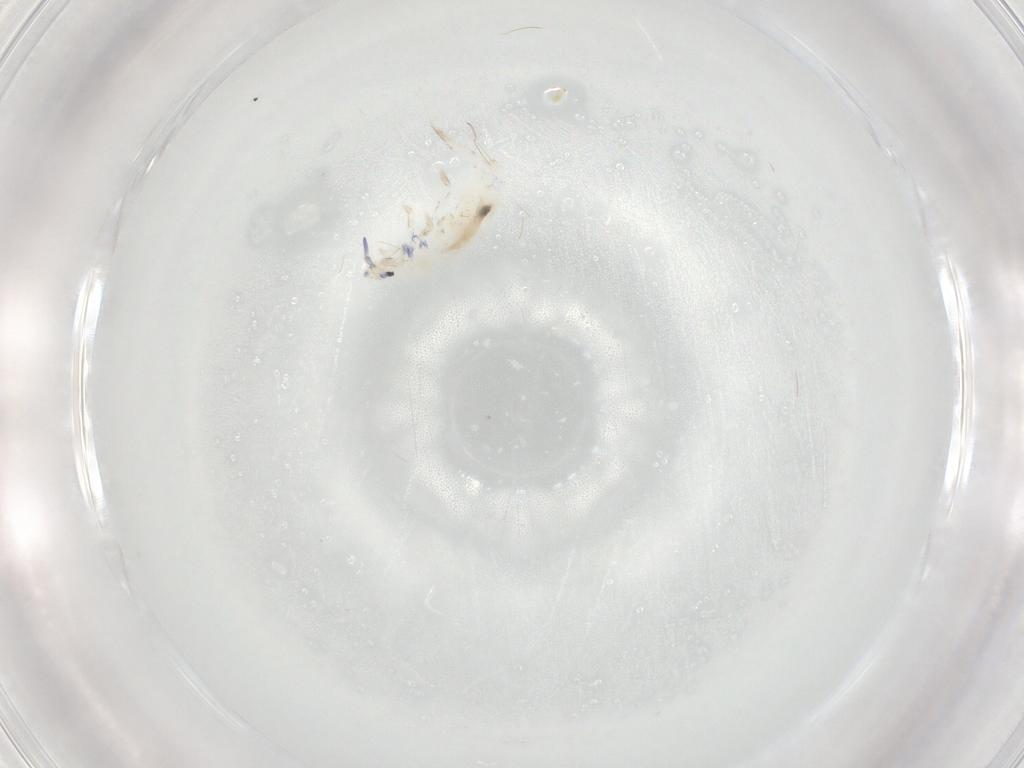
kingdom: Animalia
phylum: Arthropoda
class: Collembola
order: Entomobryomorpha
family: Entomobryidae
